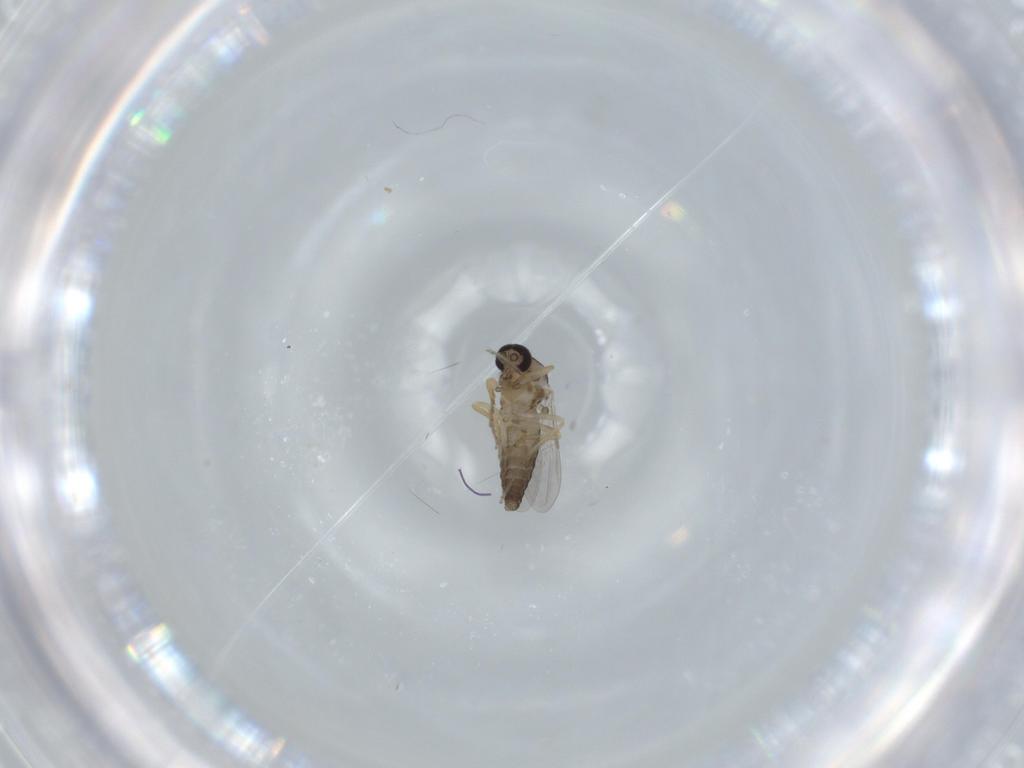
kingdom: Animalia
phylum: Arthropoda
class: Insecta
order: Diptera
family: Ceratopogonidae
